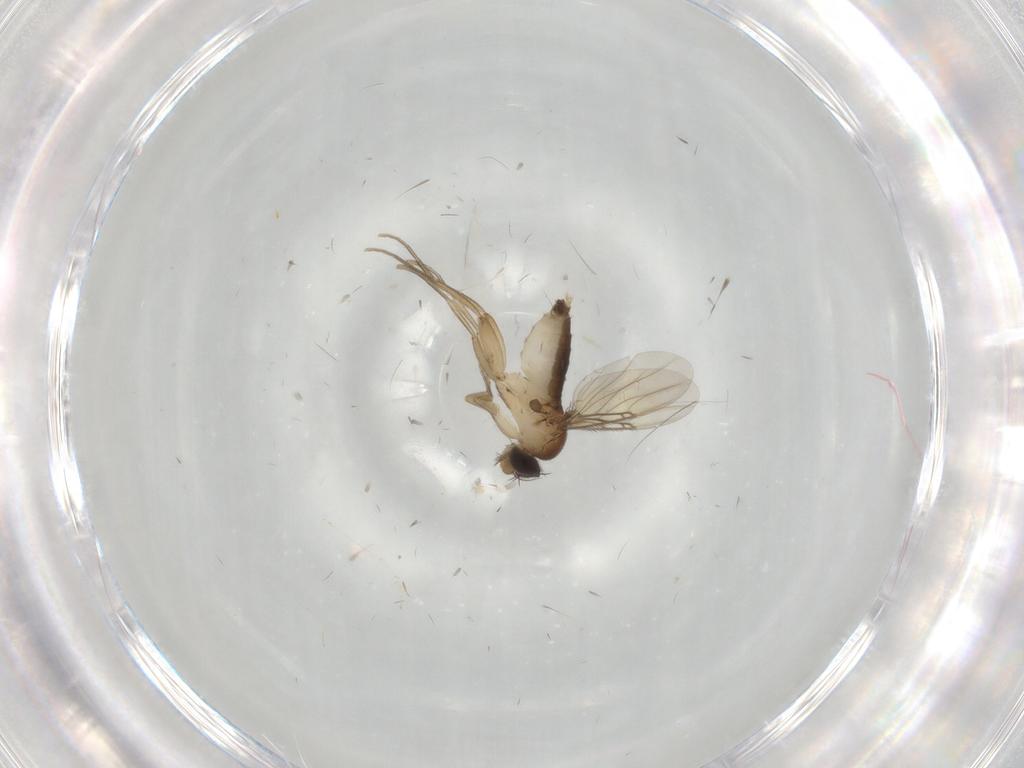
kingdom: Animalia
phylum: Arthropoda
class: Insecta
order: Diptera
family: Phoridae
